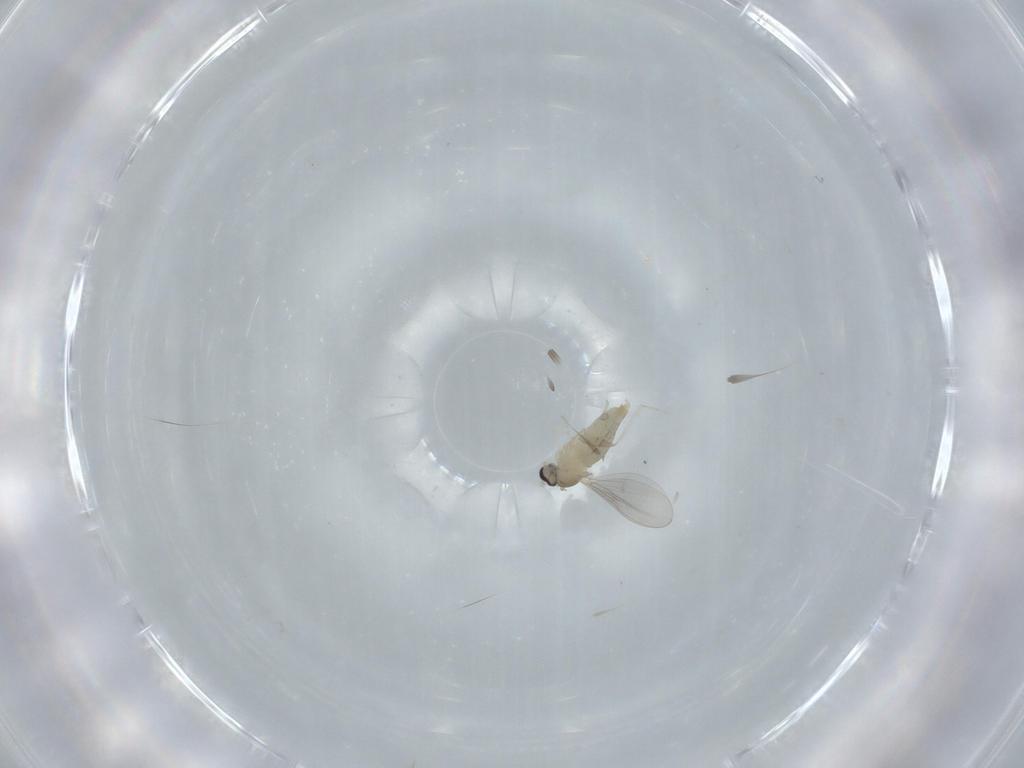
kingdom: Animalia
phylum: Arthropoda
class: Insecta
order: Diptera
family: Cecidomyiidae
